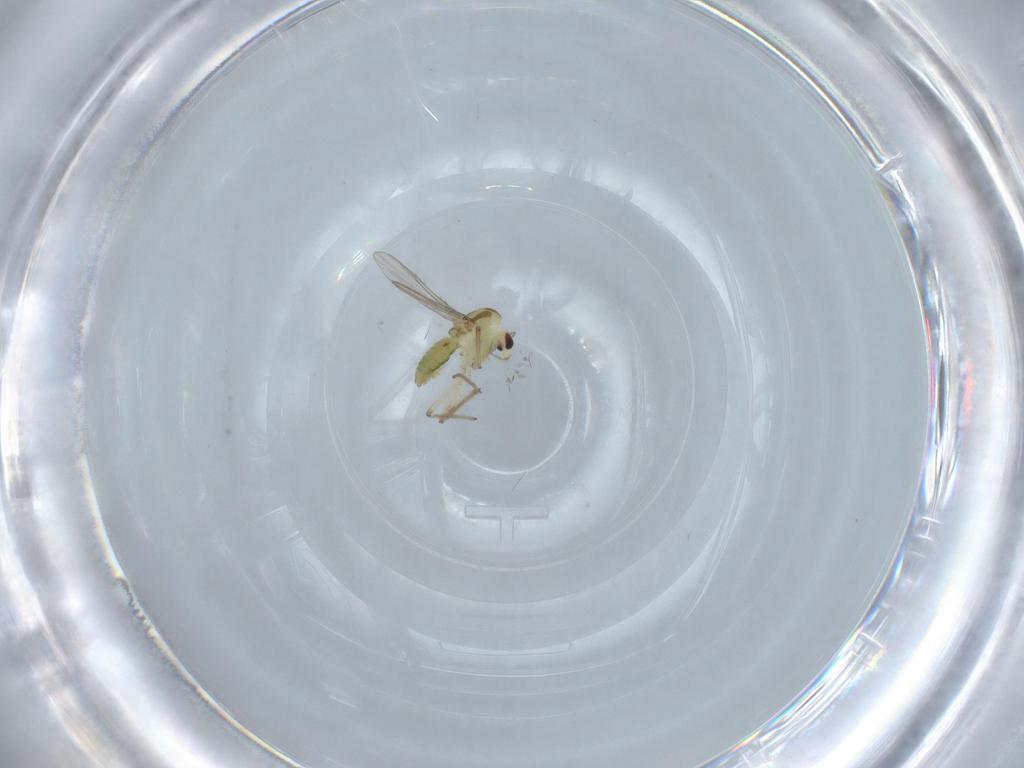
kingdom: Animalia
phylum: Arthropoda
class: Insecta
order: Diptera
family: Chironomidae
